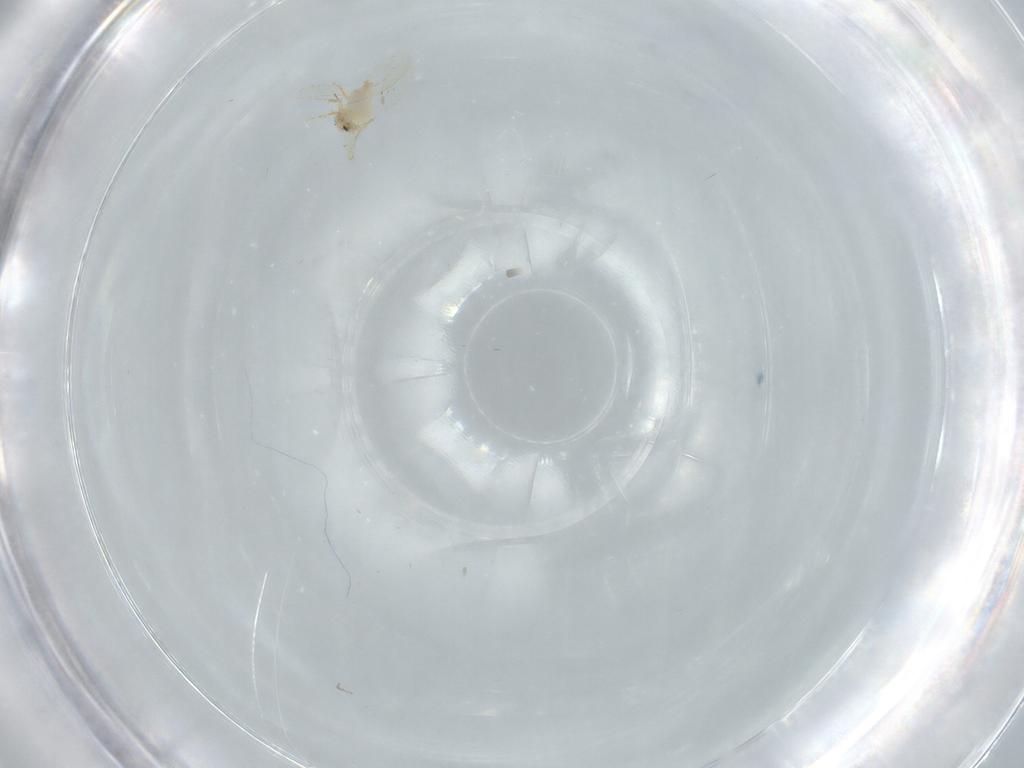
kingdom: Animalia
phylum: Arthropoda
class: Insecta
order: Hemiptera
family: Aleyrodidae
